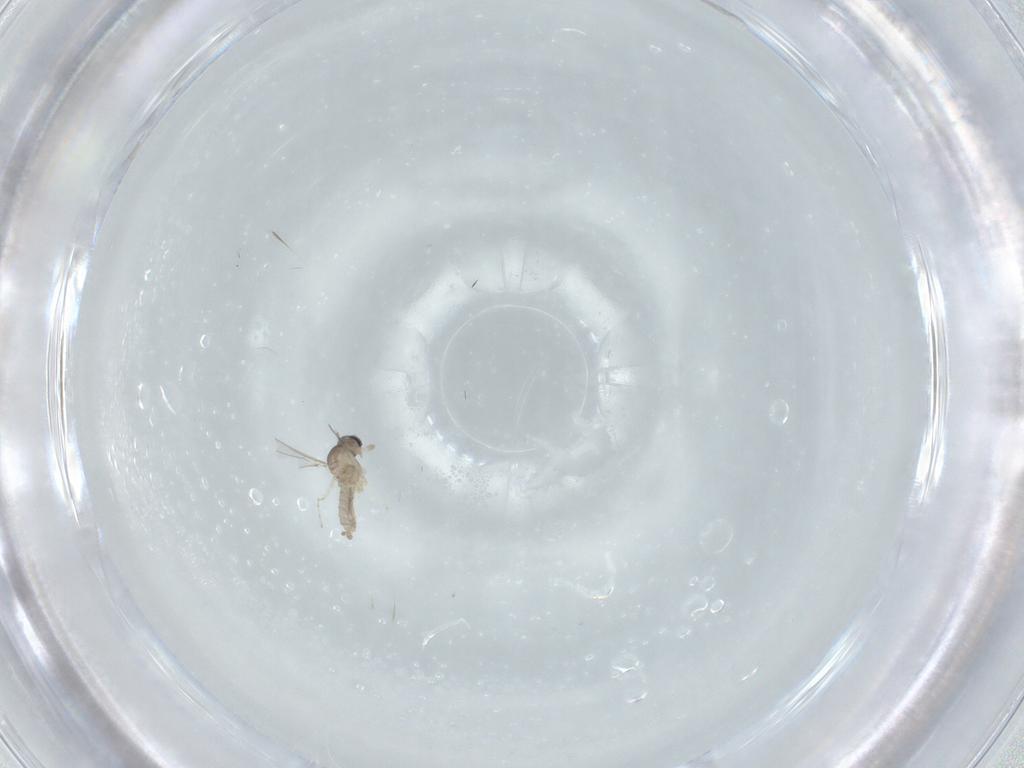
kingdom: Animalia
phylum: Arthropoda
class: Insecta
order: Diptera
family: Cecidomyiidae
